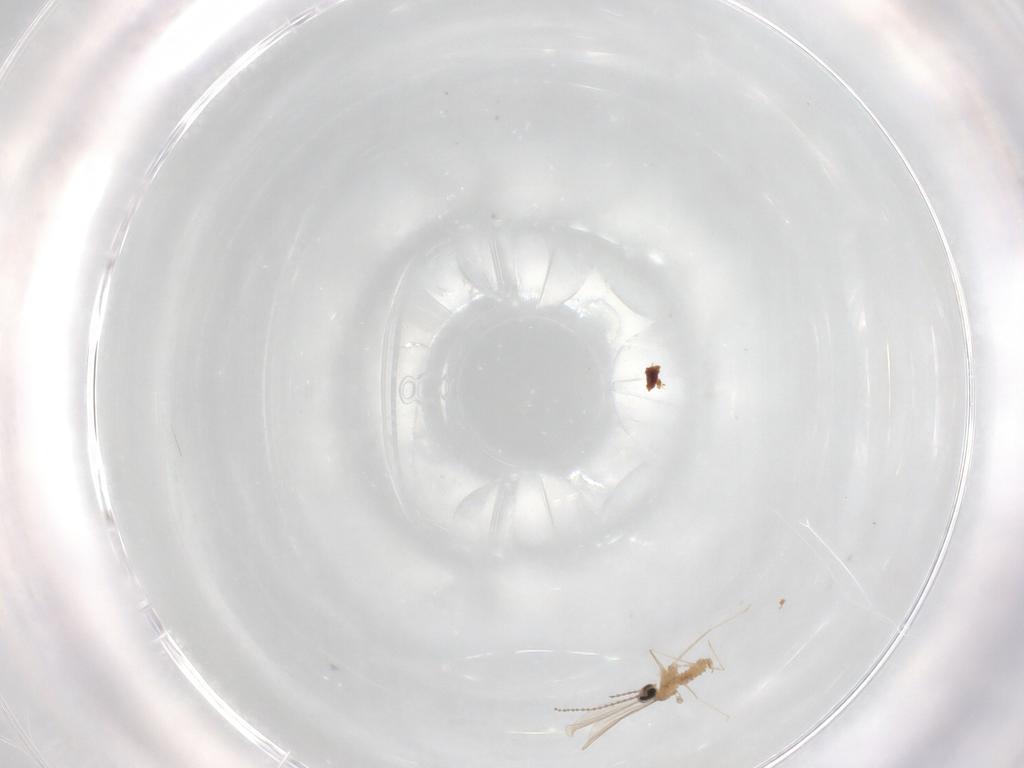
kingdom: Animalia
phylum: Arthropoda
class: Insecta
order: Diptera
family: Cecidomyiidae
